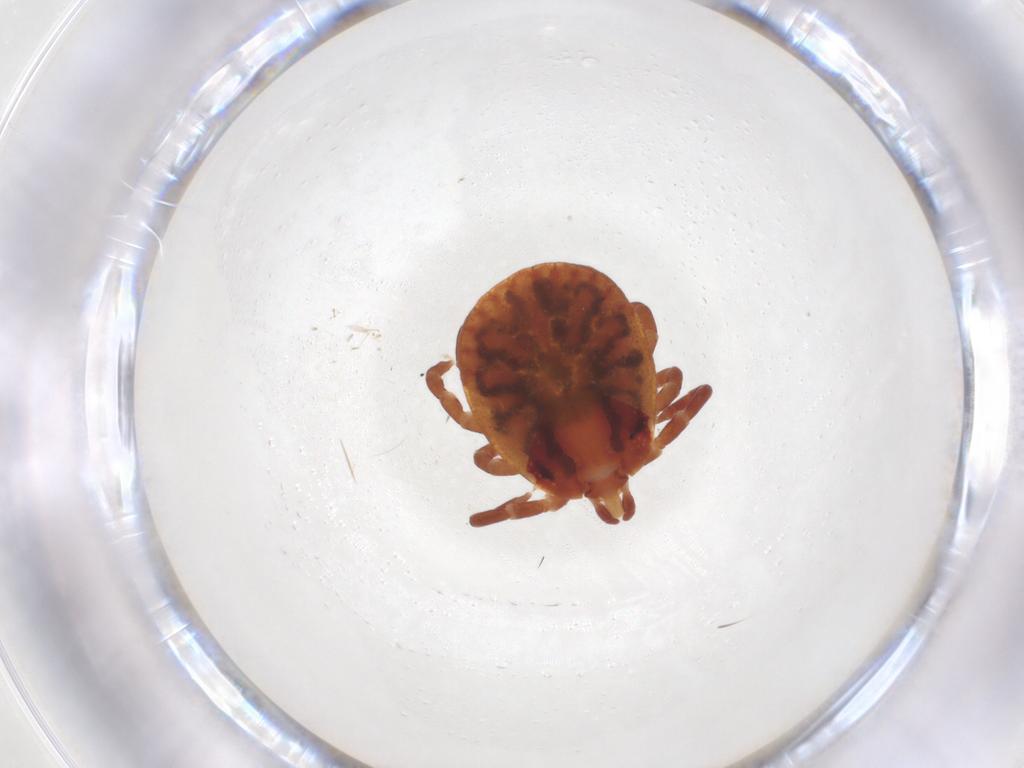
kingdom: Animalia
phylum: Arthropoda
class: Arachnida
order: Ixodida
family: Ixodidae
